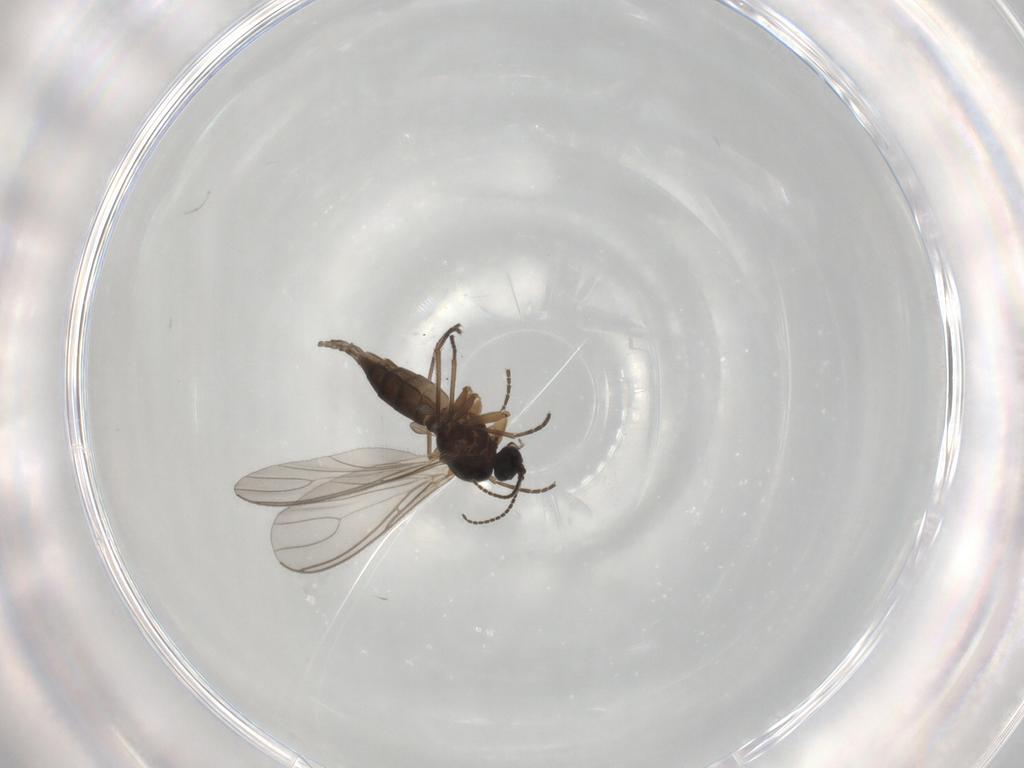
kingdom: Animalia
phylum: Arthropoda
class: Insecta
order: Diptera
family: Sciaridae
